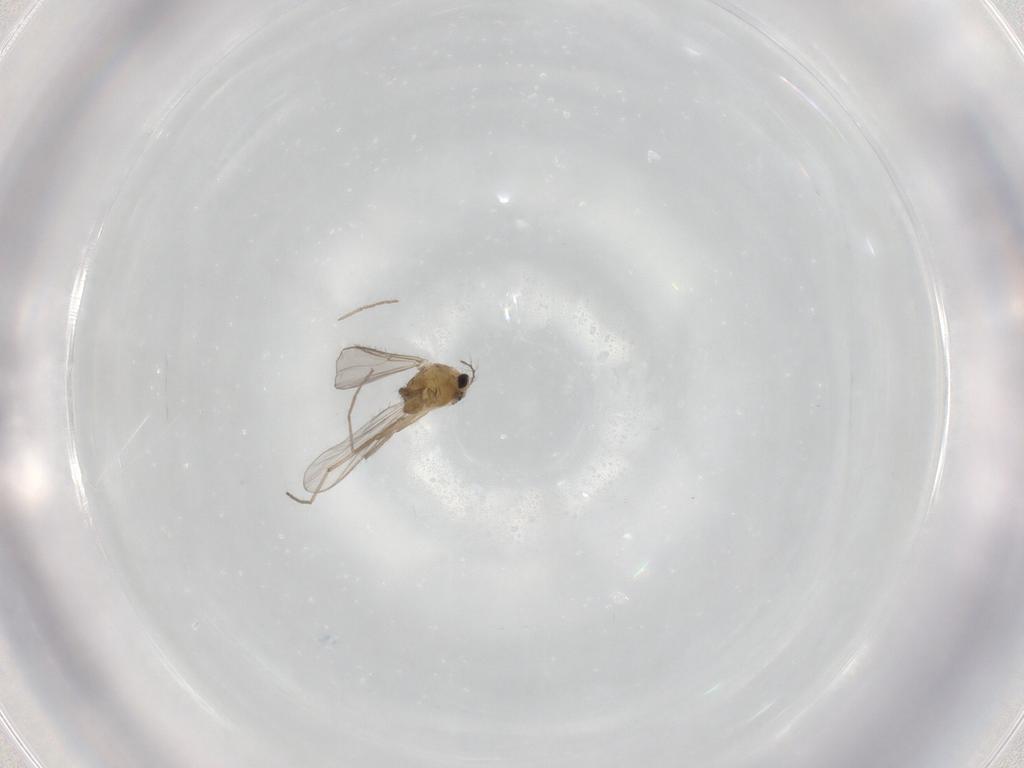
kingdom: Animalia
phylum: Arthropoda
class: Insecta
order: Diptera
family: Chironomidae
